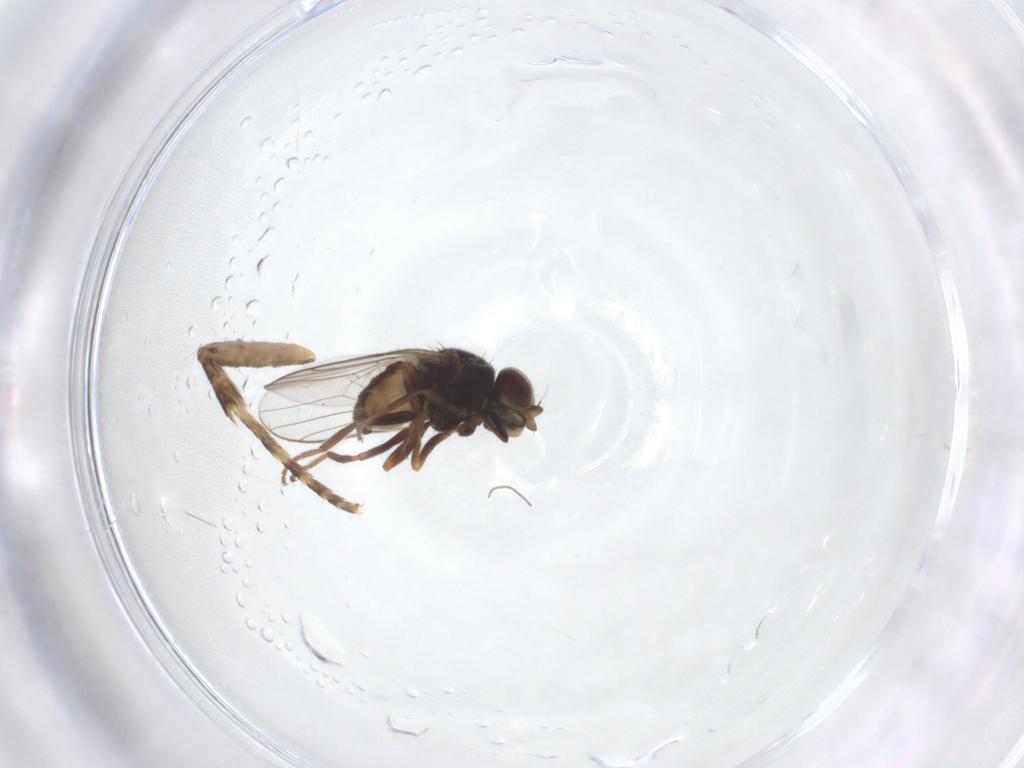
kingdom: Animalia
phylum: Arthropoda
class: Insecta
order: Diptera
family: Chloropidae
